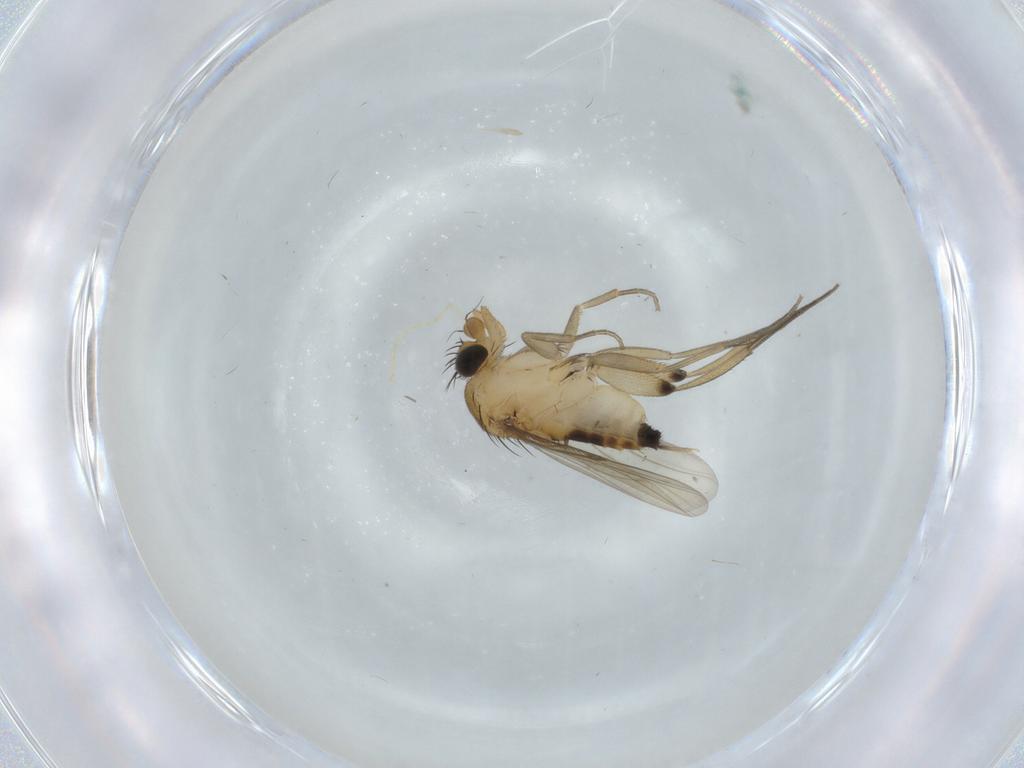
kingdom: Animalia
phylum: Arthropoda
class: Insecta
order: Diptera
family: Phoridae
